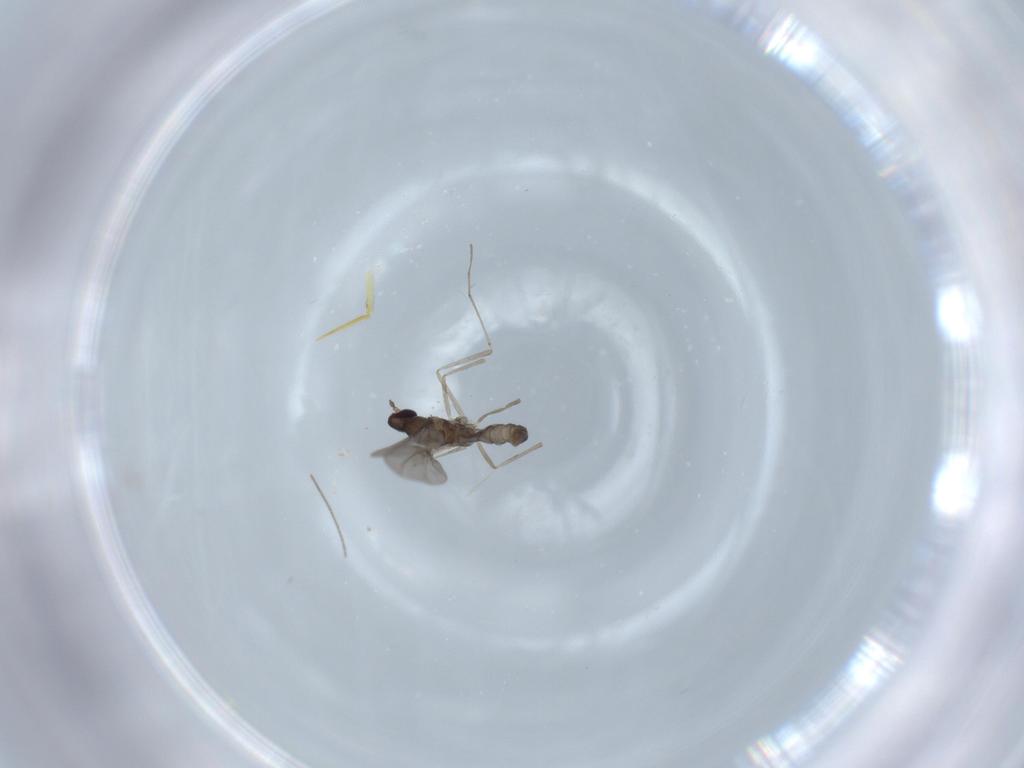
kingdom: Animalia
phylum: Arthropoda
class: Insecta
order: Diptera
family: Cecidomyiidae
